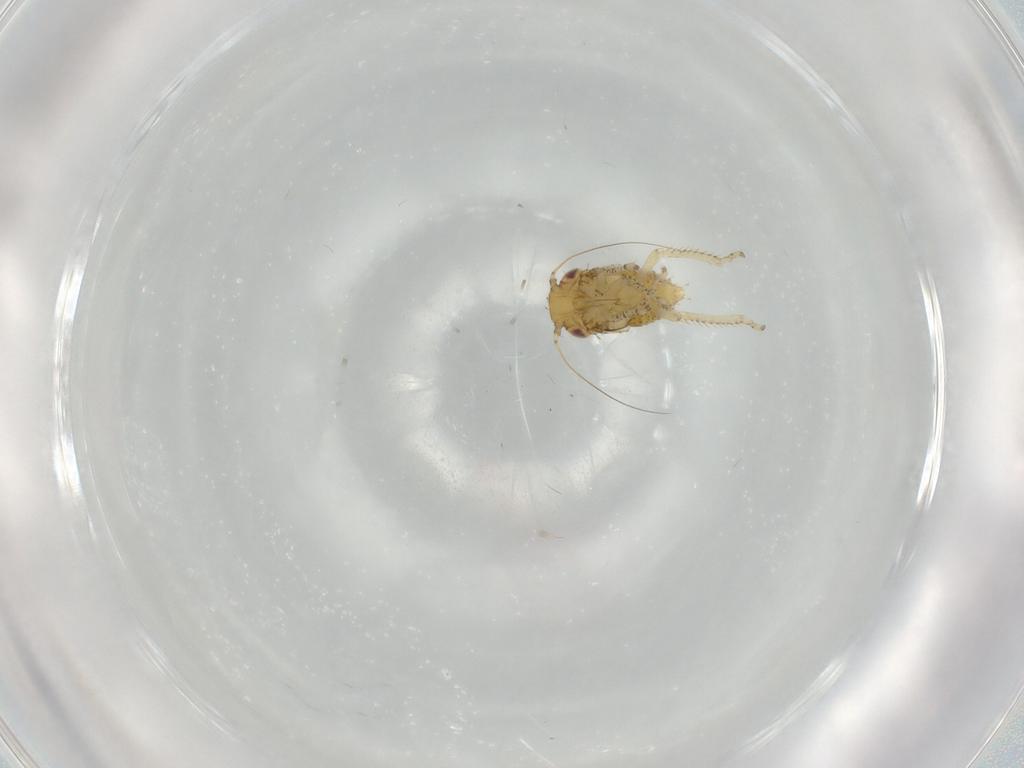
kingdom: Animalia
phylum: Arthropoda
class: Insecta
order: Hemiptera
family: Cicadellidae
